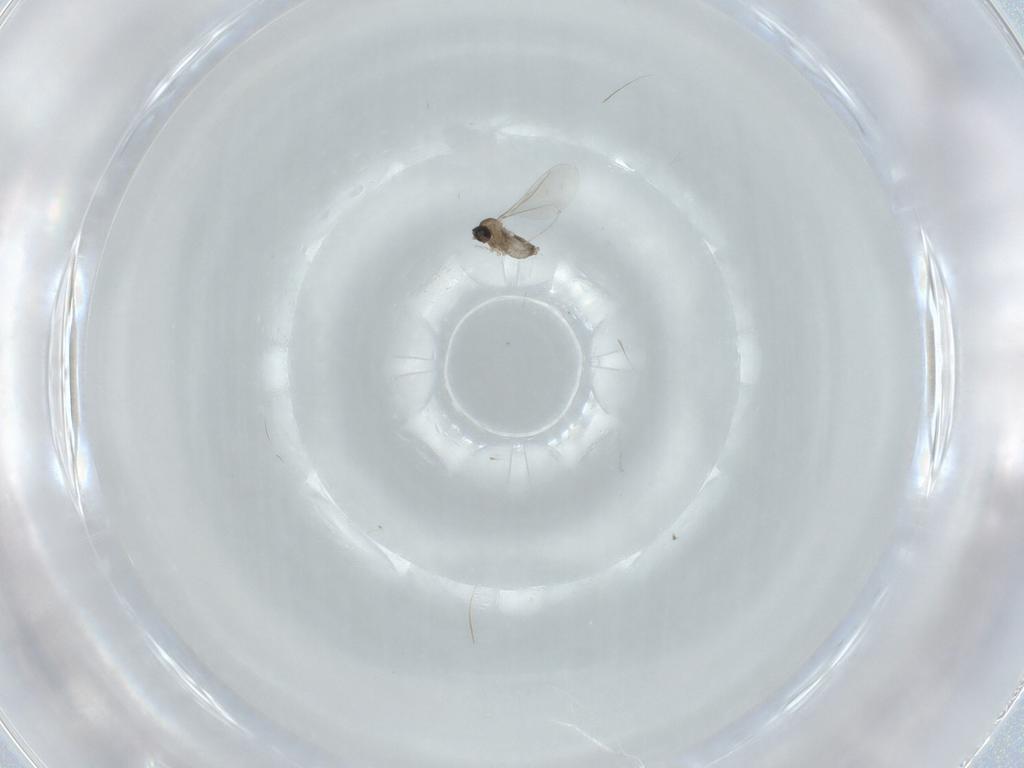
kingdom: Animalia
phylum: Arthropoda
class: Insecta
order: Diptera
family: Cecidomyiidae
